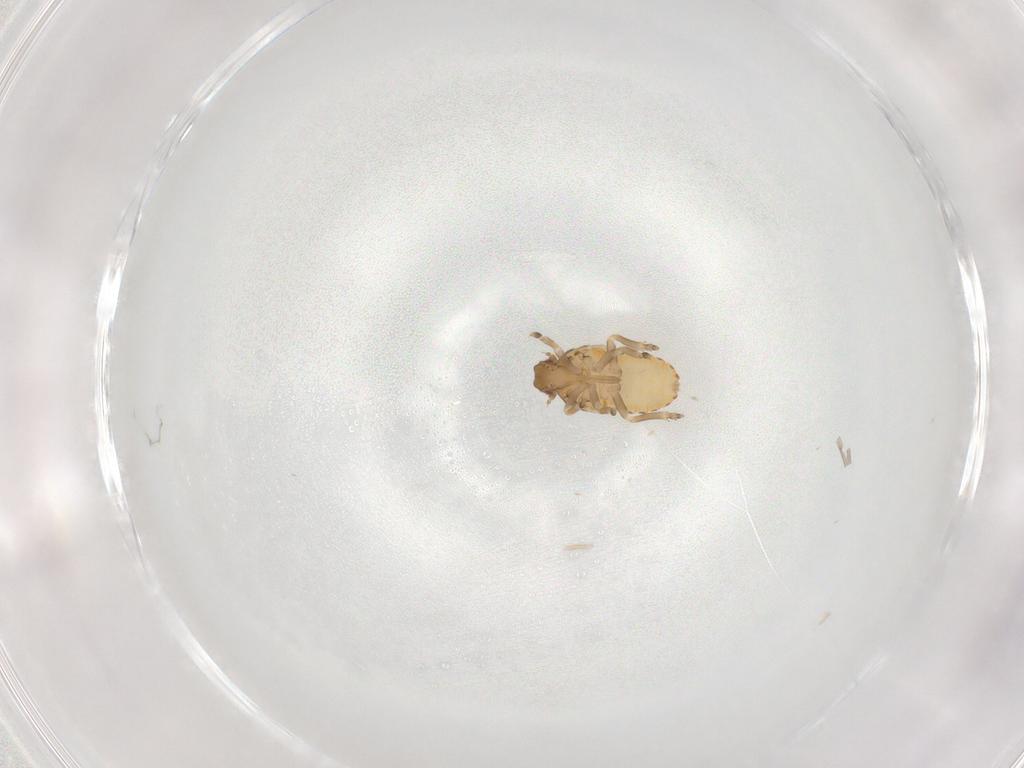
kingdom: Animalia
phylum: Arthropoda
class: Insecta
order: Hemiptera
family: Flatidae
